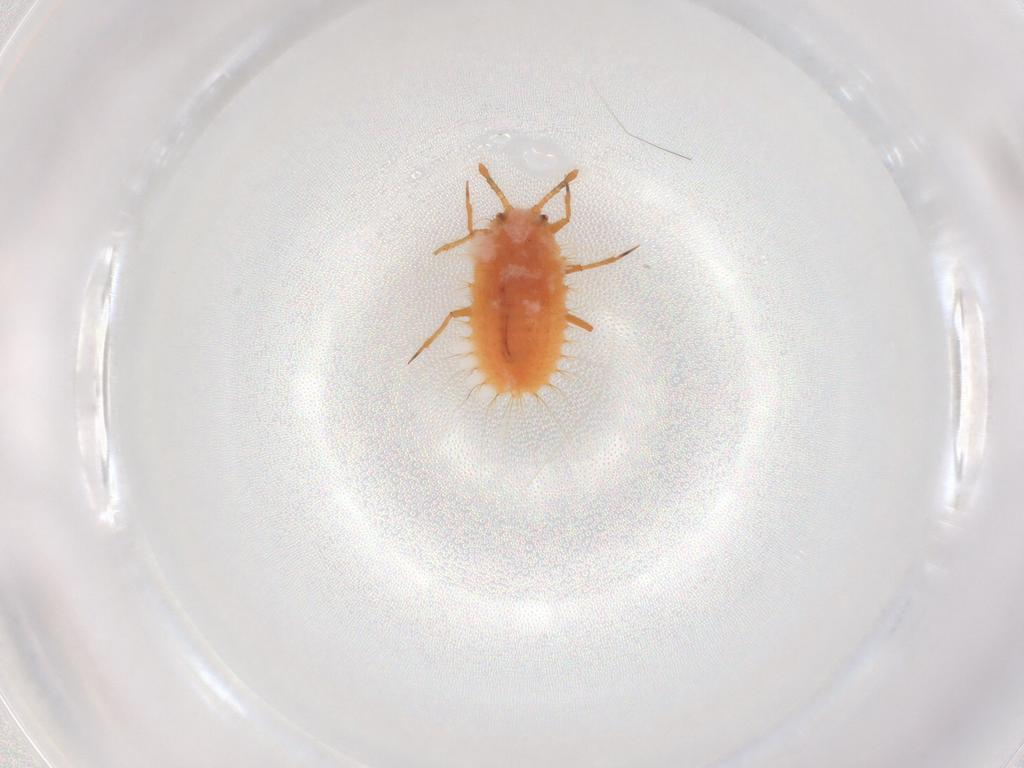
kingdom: Animalia
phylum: Arthropoda
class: Insecta
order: Hemiptera
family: Coccoidea_incertae_sedis
